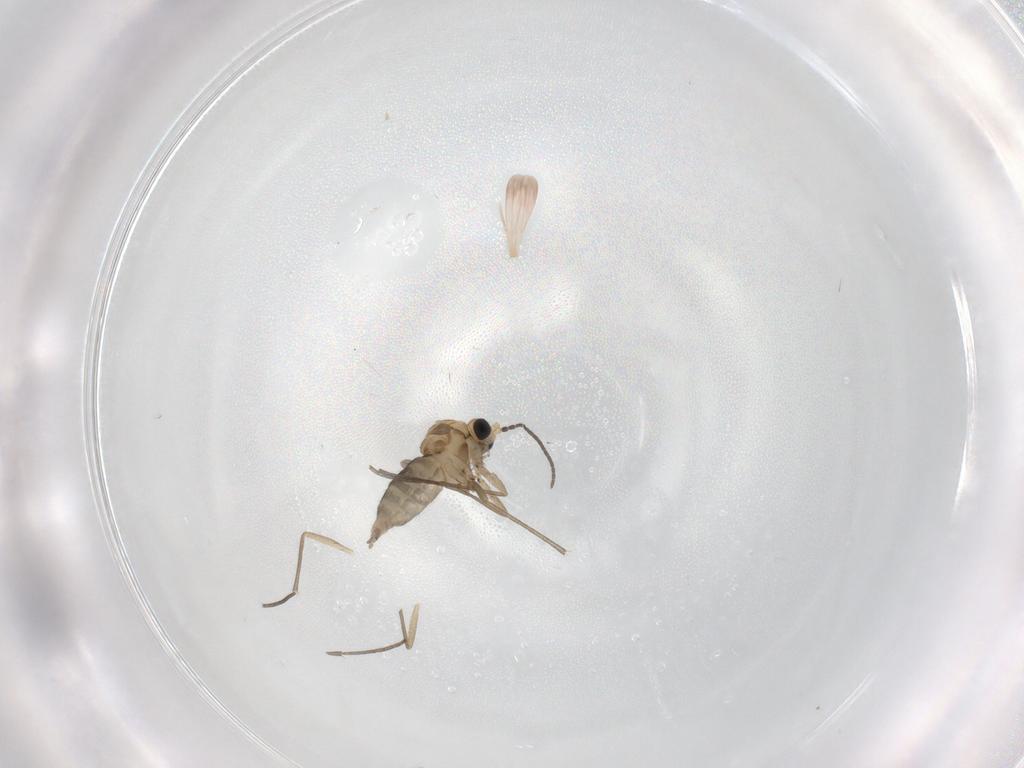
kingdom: Animalia
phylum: Arthropoda
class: Insecta
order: Diptera
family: Sciaridae
